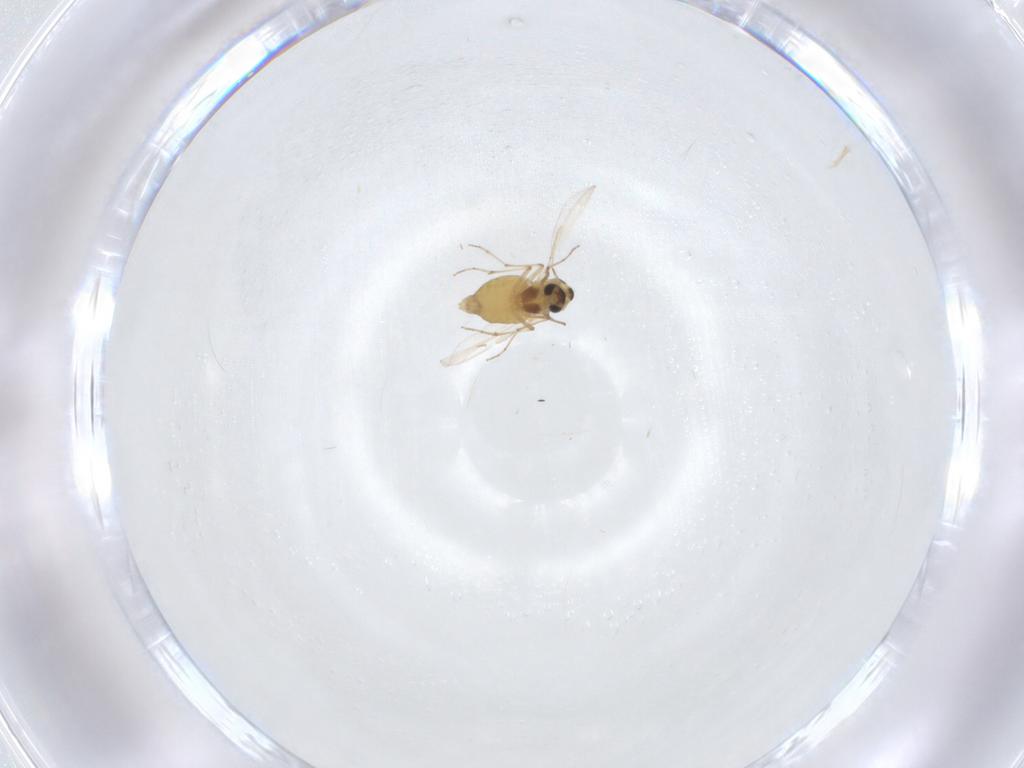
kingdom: Animalia
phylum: Arthropoda
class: Insecta
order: Diptera
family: Chironomidae
